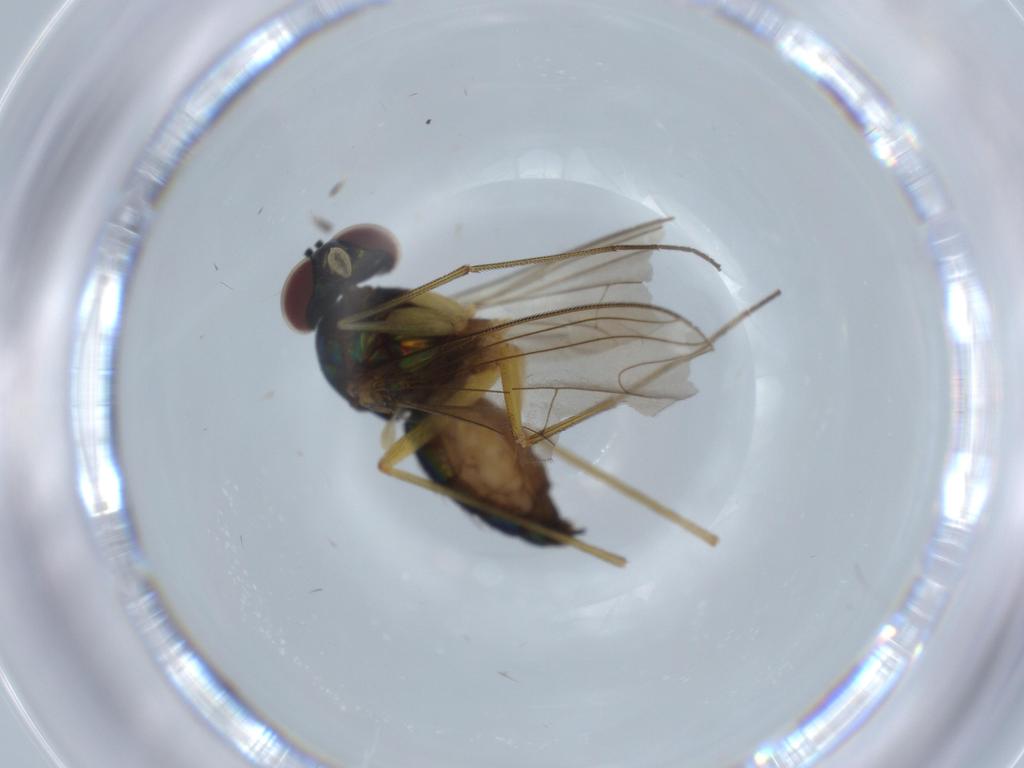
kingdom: Animalia
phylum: Arthropoda
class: Insecta
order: Diptera
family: Dolichopodidae
